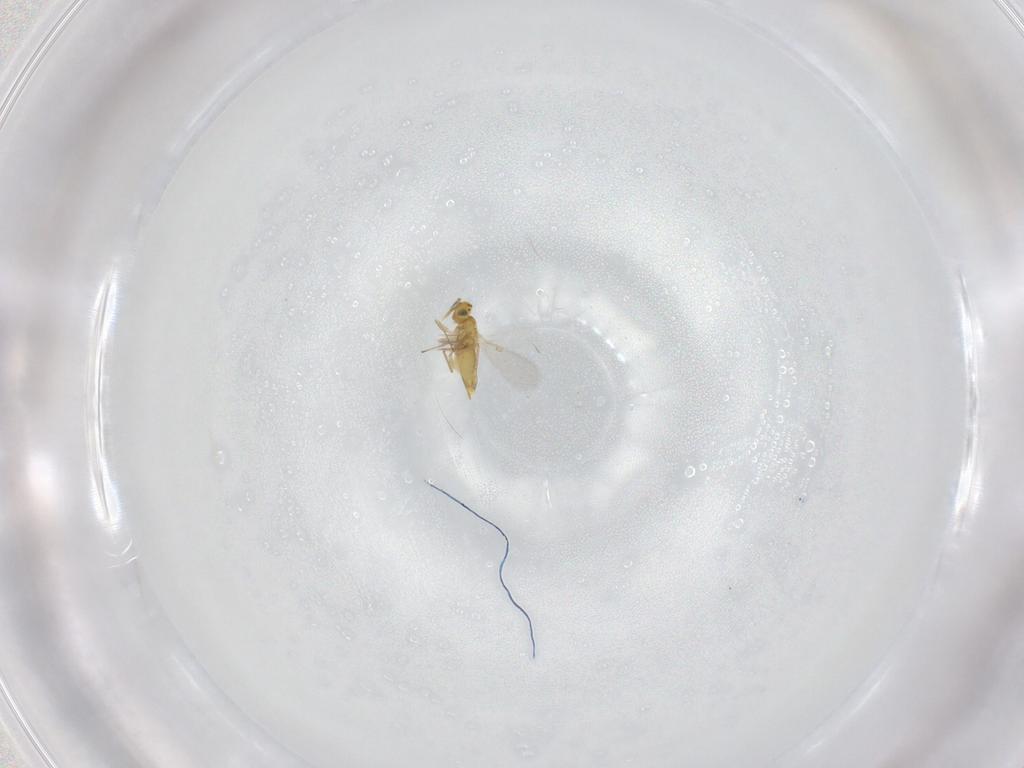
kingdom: Animalia
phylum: Arthropoda
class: Insecta
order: Hymenoptera
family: Aphelinidae
